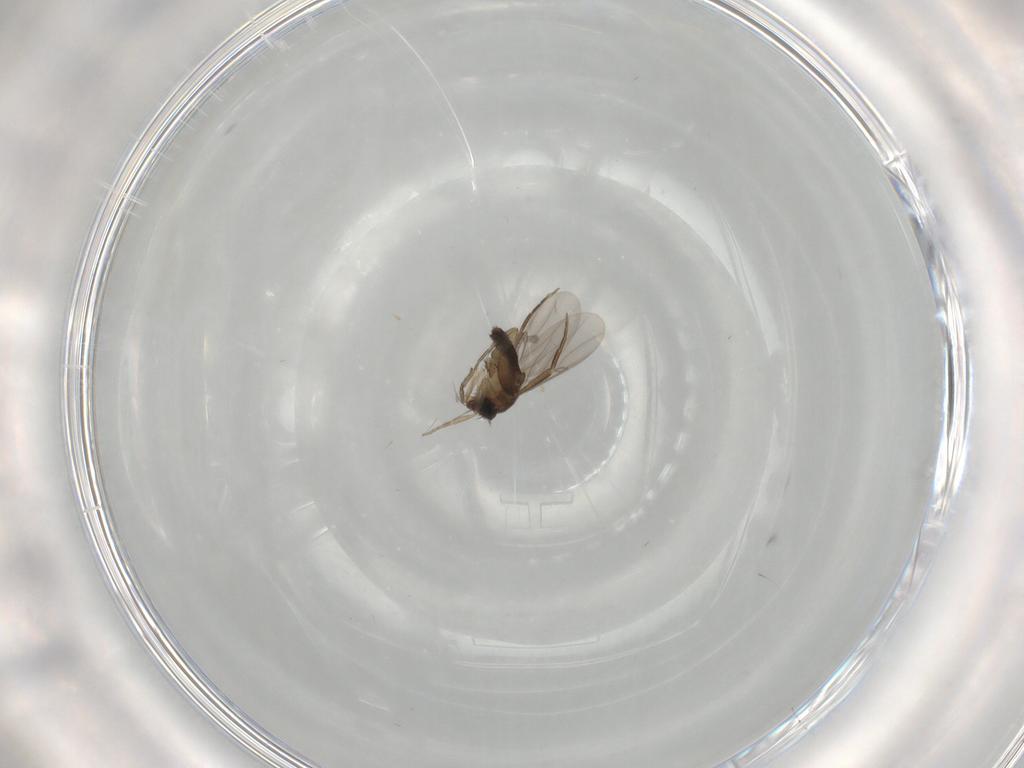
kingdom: Animalia
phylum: Arthropoda
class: Insecta
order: Diptera
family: Phoridae
